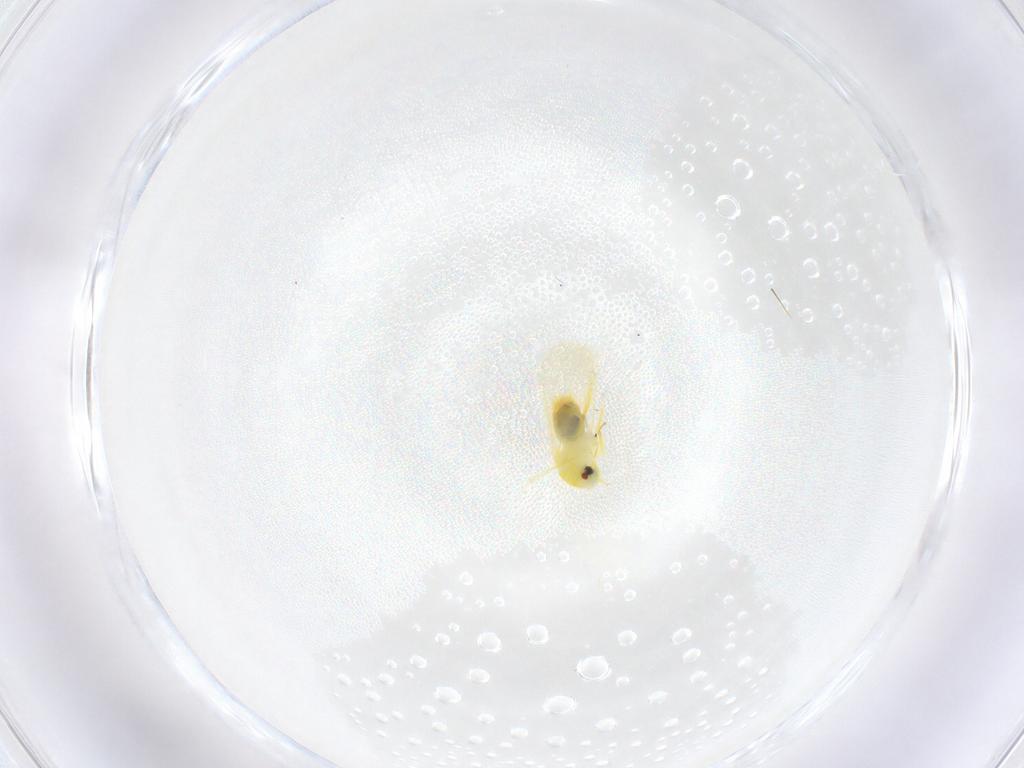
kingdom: Animalia
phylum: Arthropoda
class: Insecta
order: Hemiptera
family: Aleyrodidae
